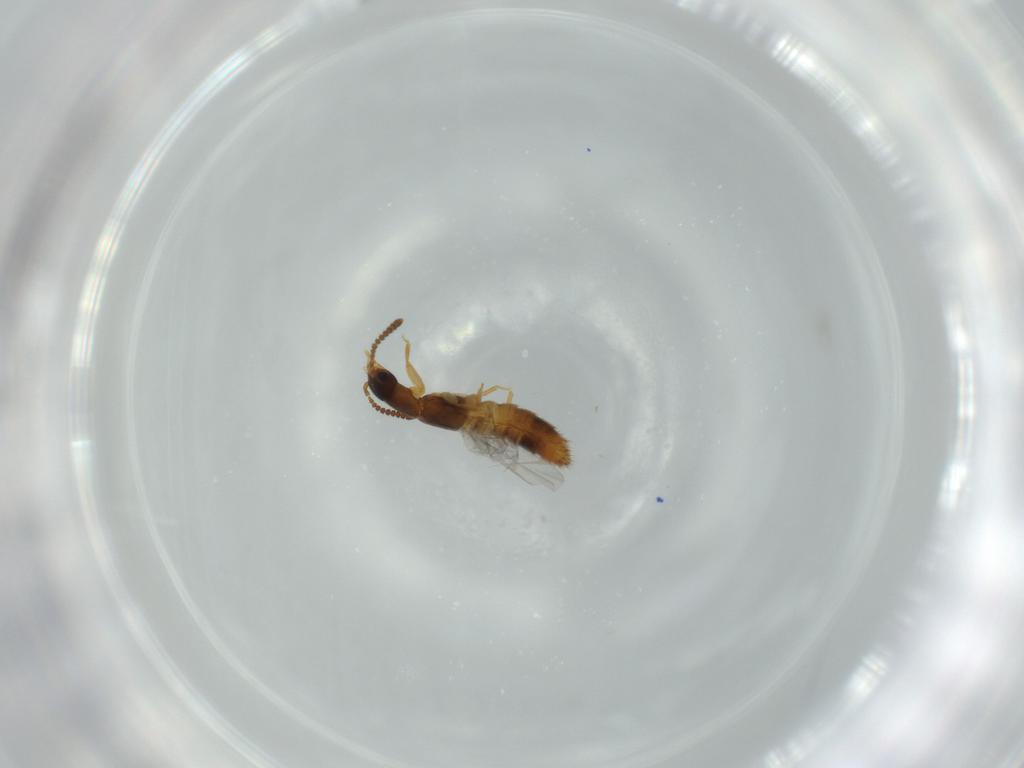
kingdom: Animalia
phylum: Arthropoda
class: Insecta
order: Coleoptera
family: Staphylinidae
